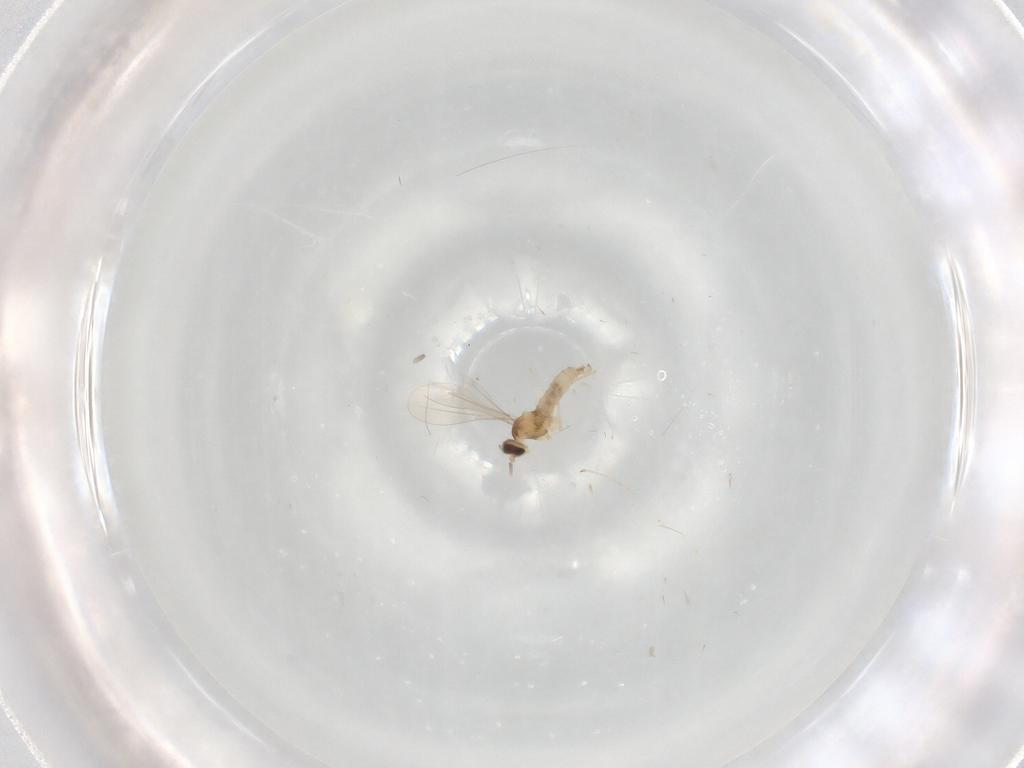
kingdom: Animalia
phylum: Arthropoda
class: Insecta
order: Diptera
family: Cecidomyiidae
